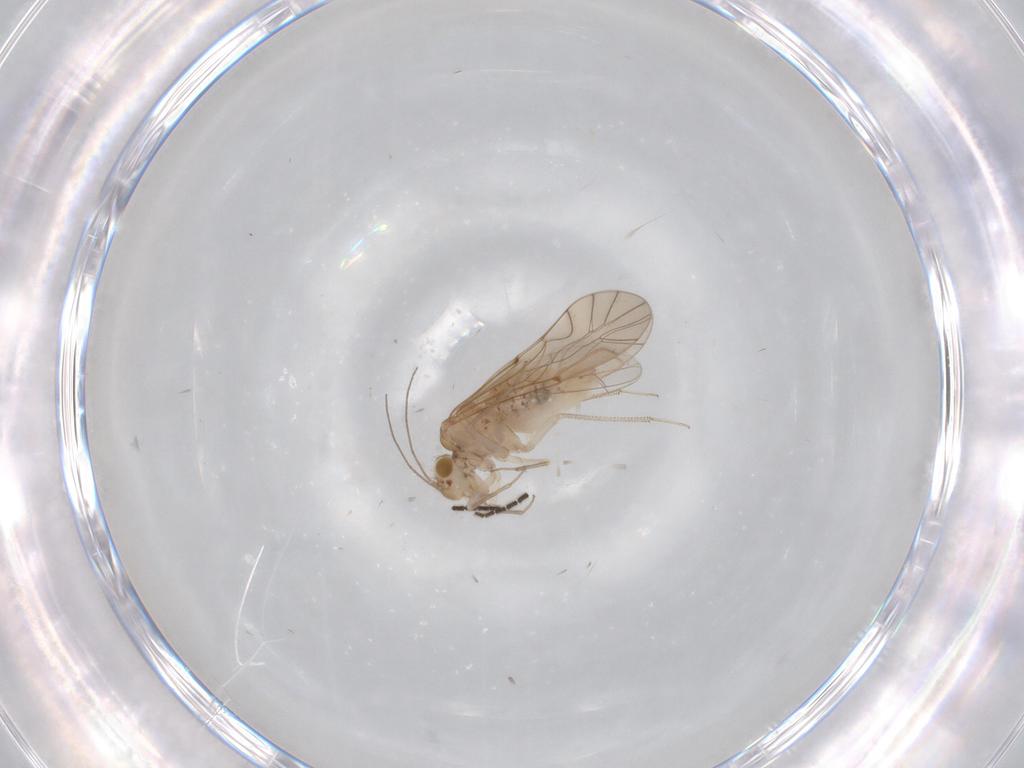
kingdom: Animalia
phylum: Arthropoda
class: Insecta
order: Psocodea
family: Lachesillidae
